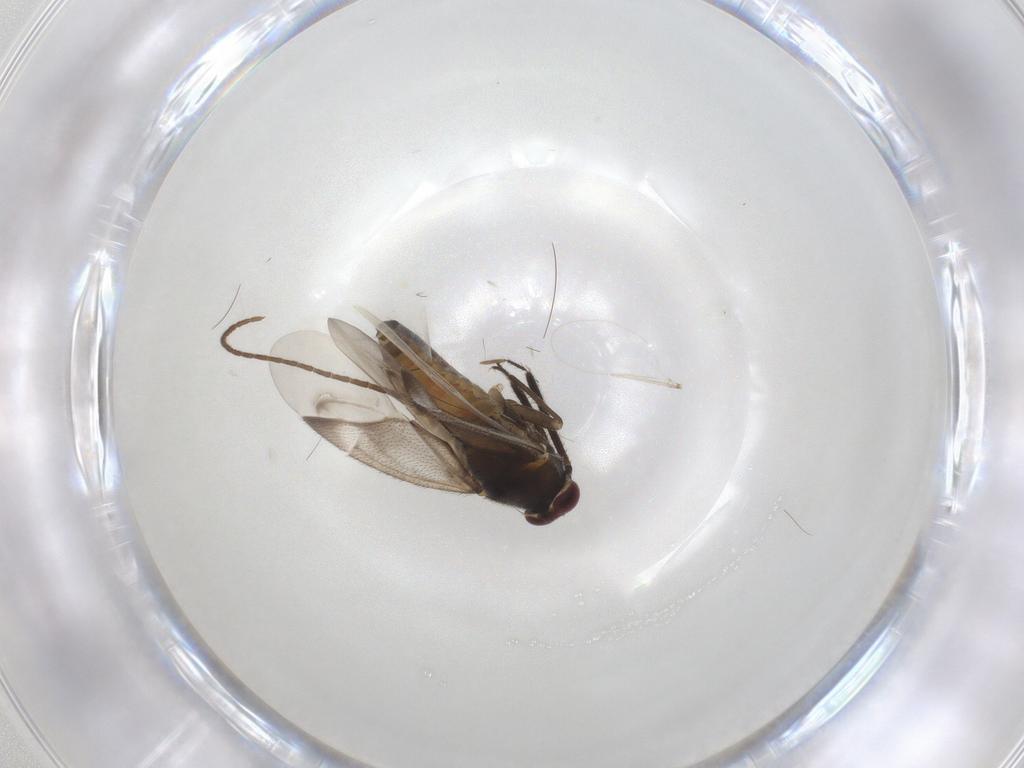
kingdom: Animalia
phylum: Arthropoda
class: Insecta
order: Hemiptera
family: Miridae
